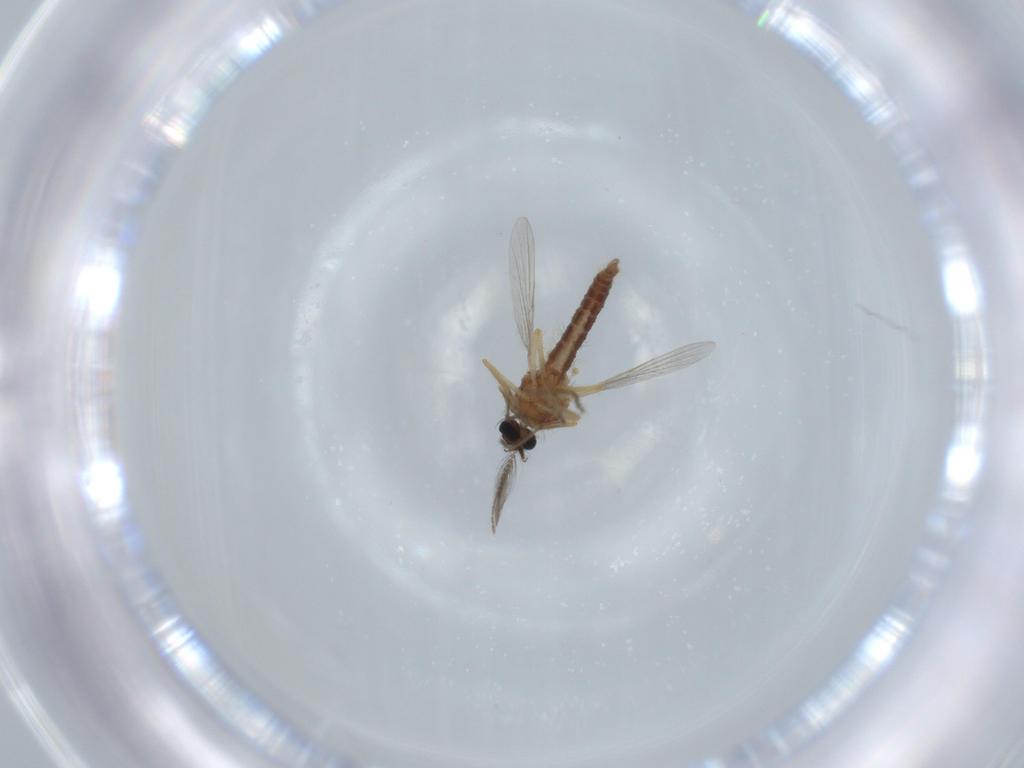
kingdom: Animalia
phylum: Arthropoda
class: Insecta
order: Diptera
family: Ceratopogonidae
